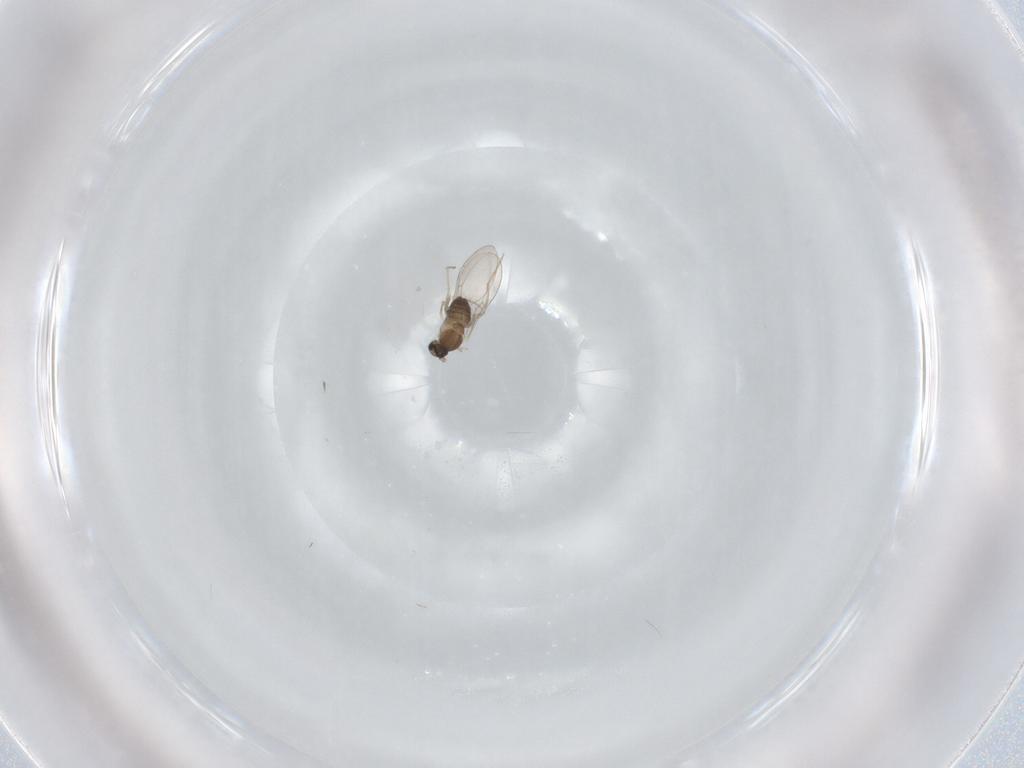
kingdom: Animalia
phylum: Arthropoda
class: Insecta
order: Diptera
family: Cecidomyiidae
